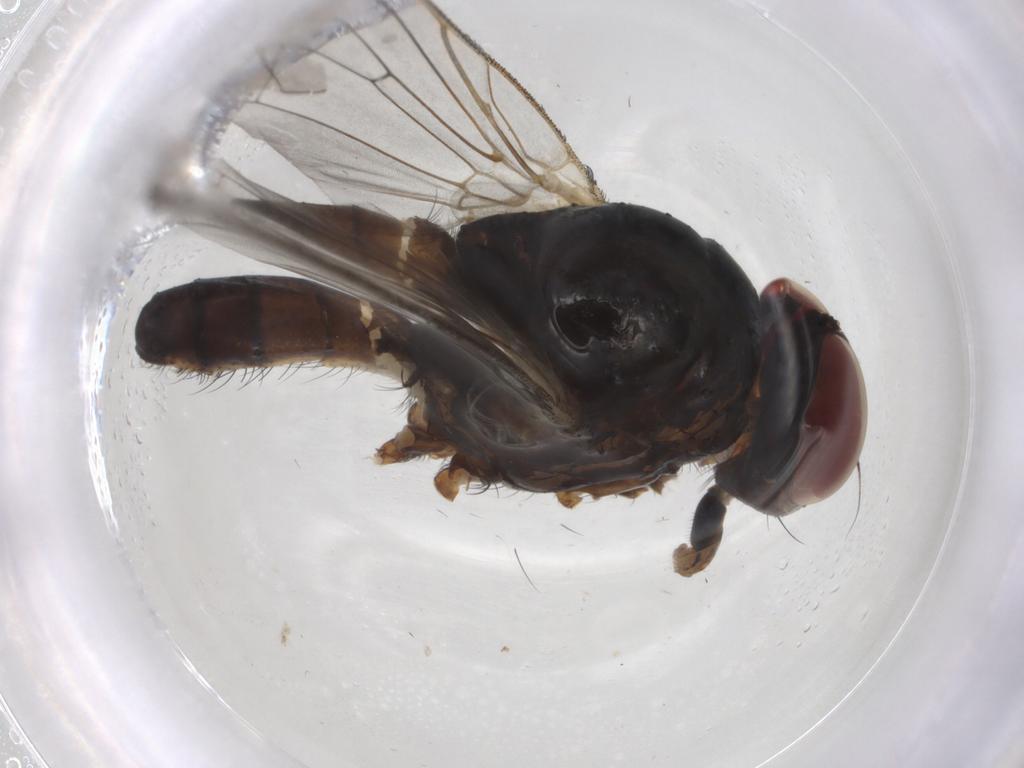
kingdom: Animalia
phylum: Arthropoda
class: Insecta
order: Diptera
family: Anthomyiidae
